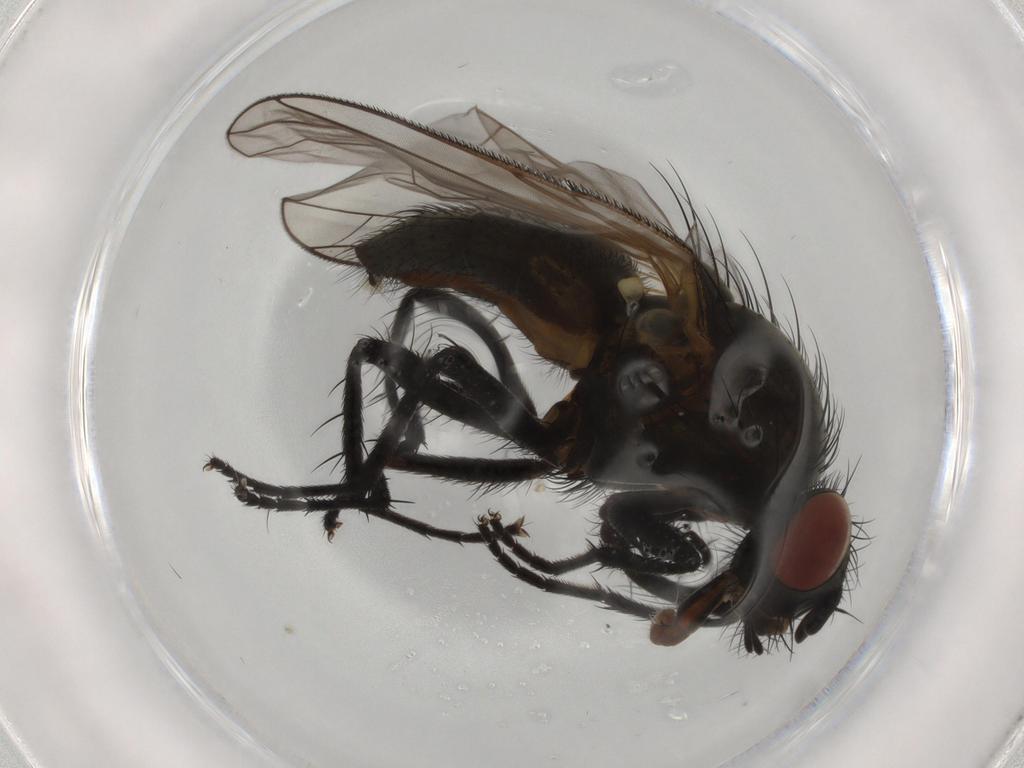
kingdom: Animalia
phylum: Arthropoda
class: Insecta
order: Diptera
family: Anthomyiidae
